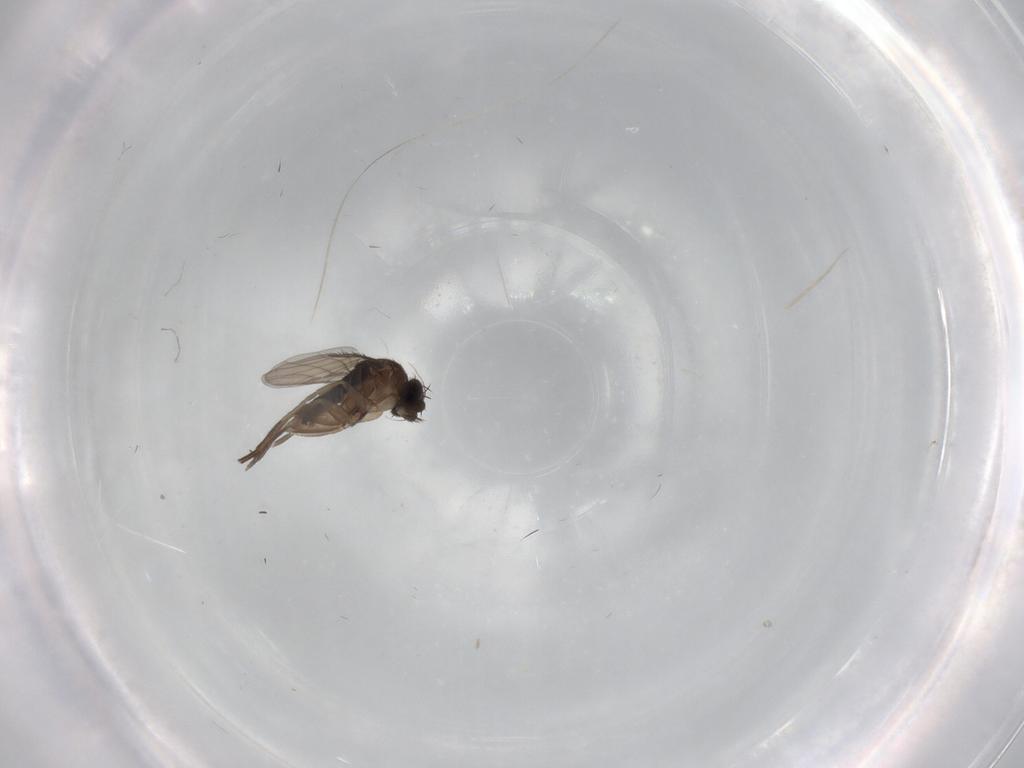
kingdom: Animalia
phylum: Arthropoda
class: Insecta
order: Diptera
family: Phoridae
